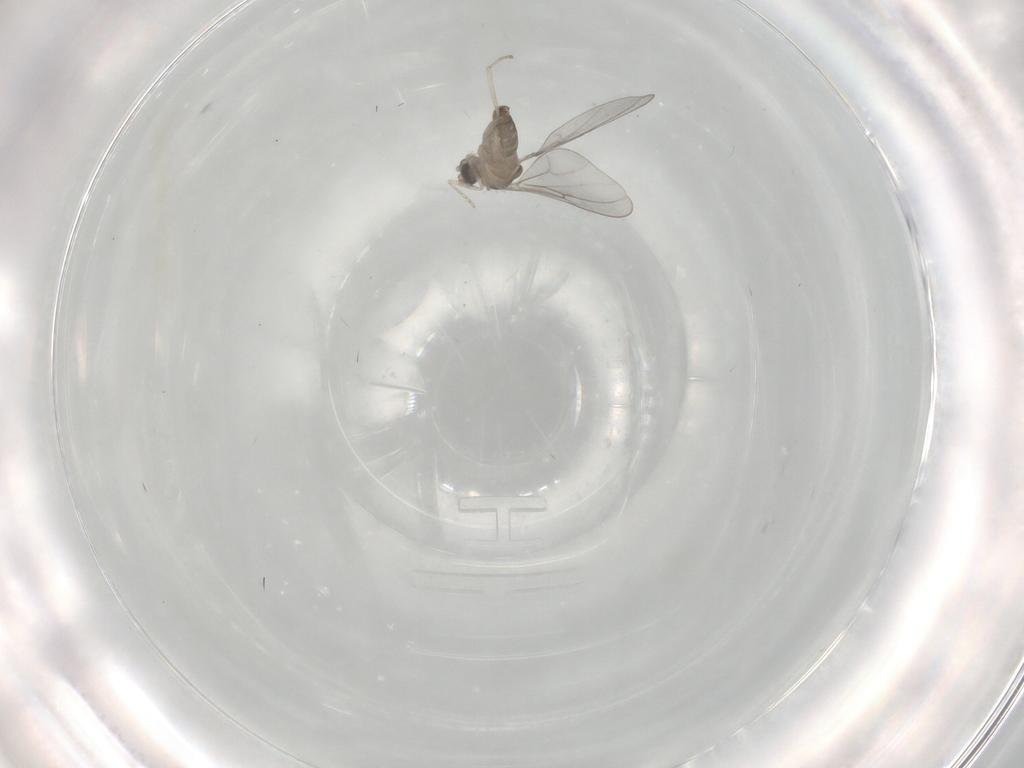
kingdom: Animalia
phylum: Arthropoda
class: Insecta
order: Diptera
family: Cecidomyiidae
